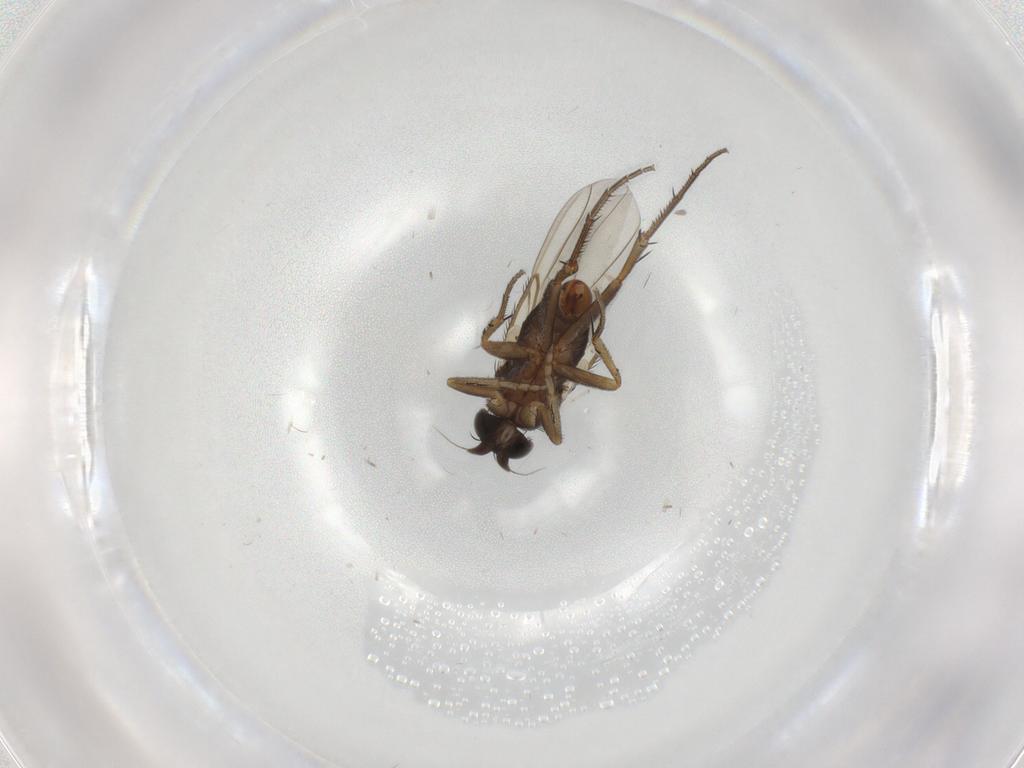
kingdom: Animalia
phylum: Arthropoda
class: Insecta
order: Diptera
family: Phoridae
